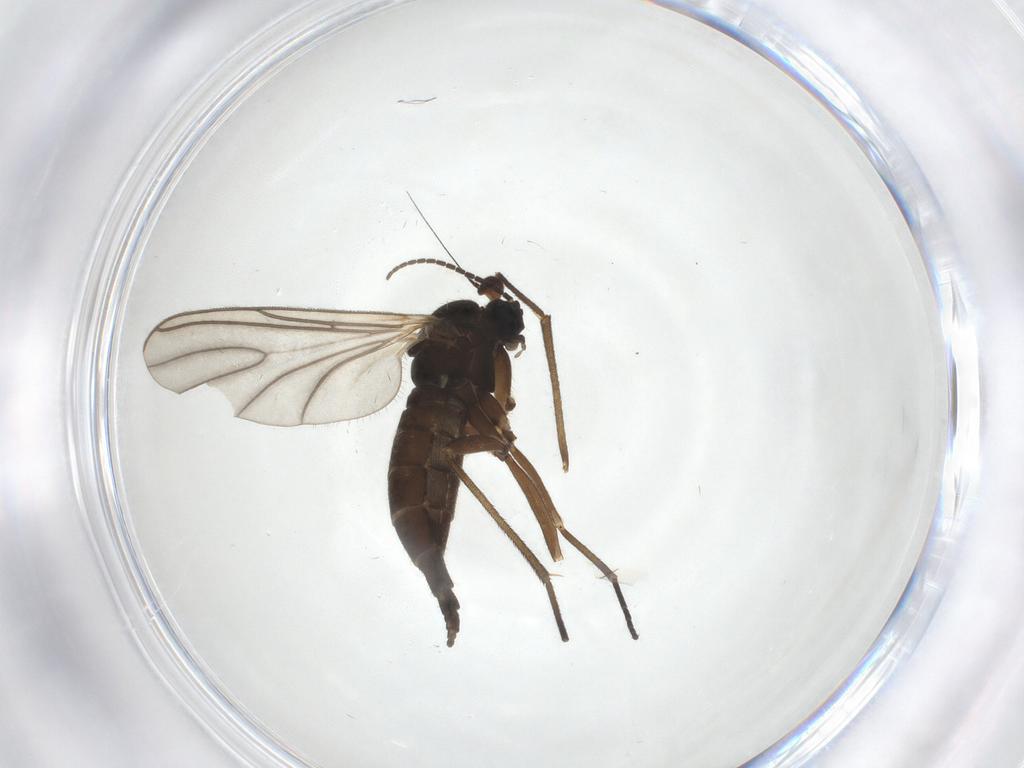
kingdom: Animalia
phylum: Arthropoda
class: Insecta
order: Diptera
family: Sciaridae
